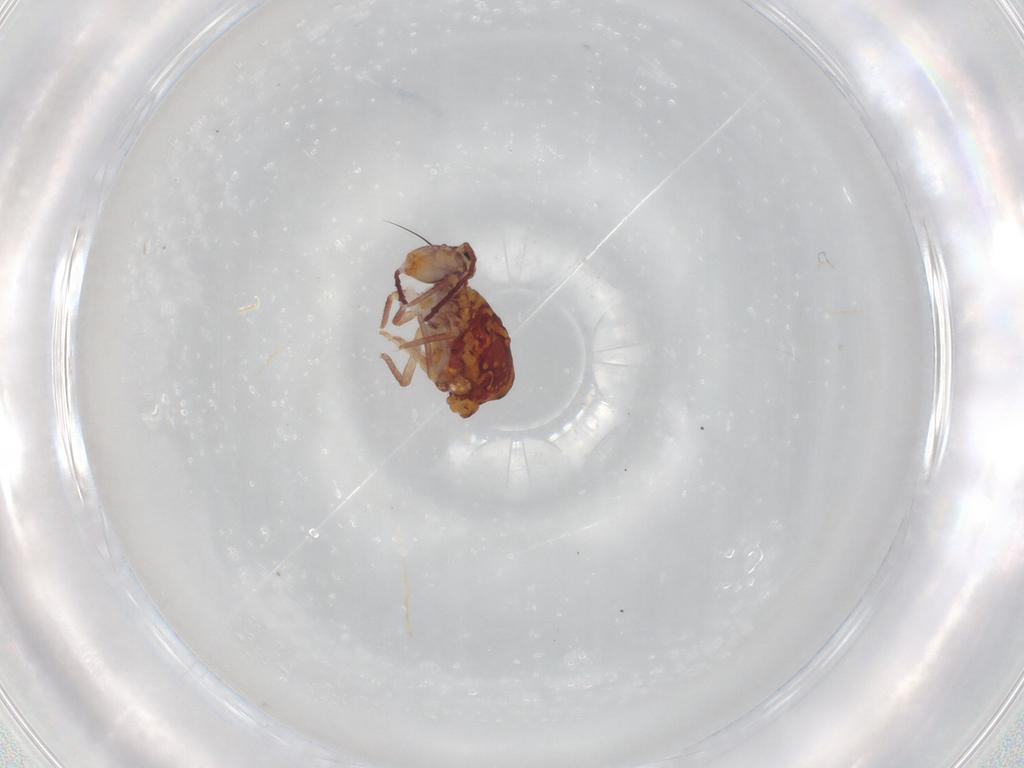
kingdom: Animalia
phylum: Arthropoda
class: Collembola
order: Symphypleona
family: Dicyrtomidae
